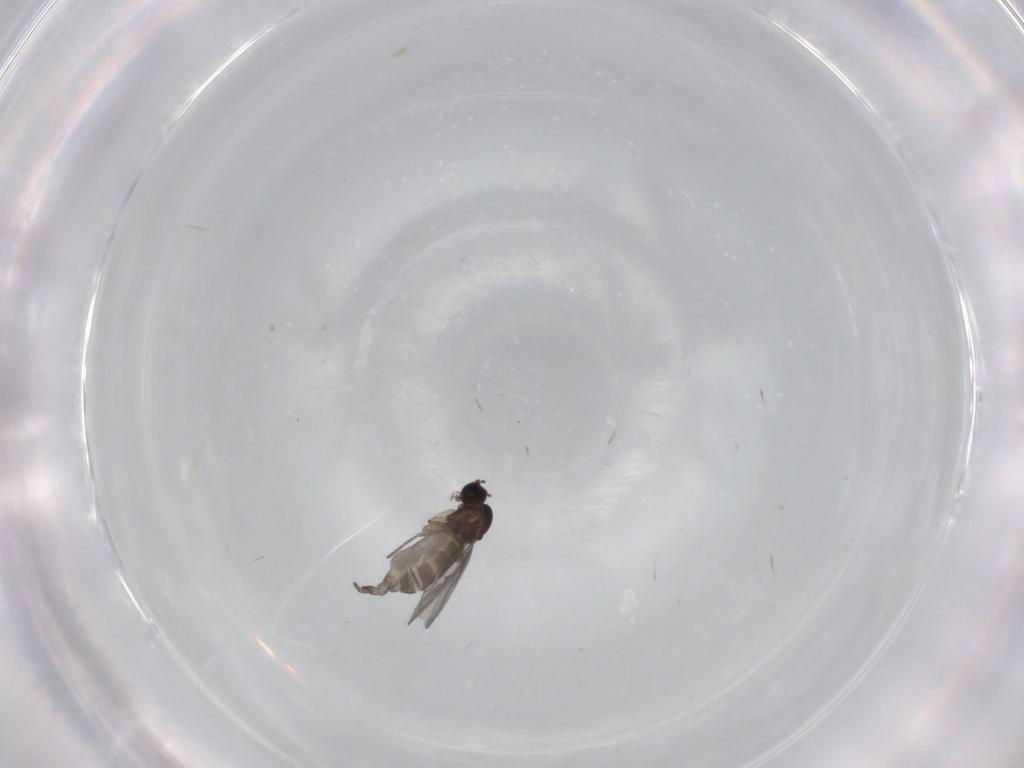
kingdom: Animalia
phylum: Arthropoda
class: Insecta
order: Diptera
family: Sciaridae
